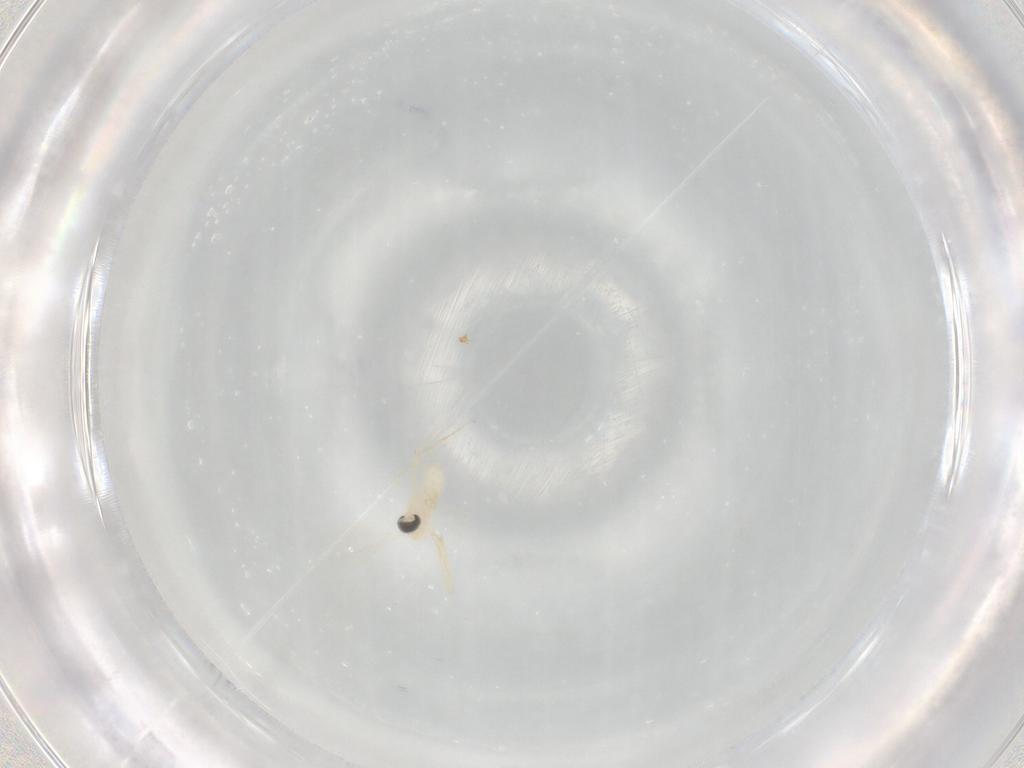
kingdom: Animalia
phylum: Arthropoda
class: Insecta
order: Diptera
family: Cecidomyiidae
